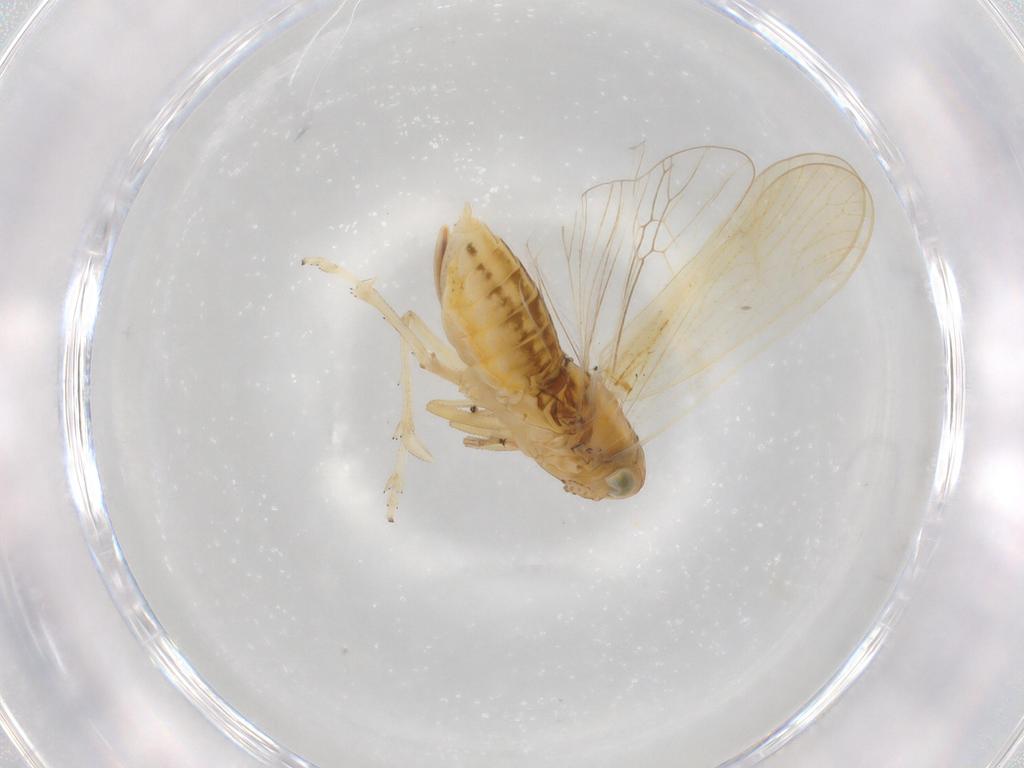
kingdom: Animalia
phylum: Arthropoda
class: Insecta
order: Hemiptera
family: Delphacidae
